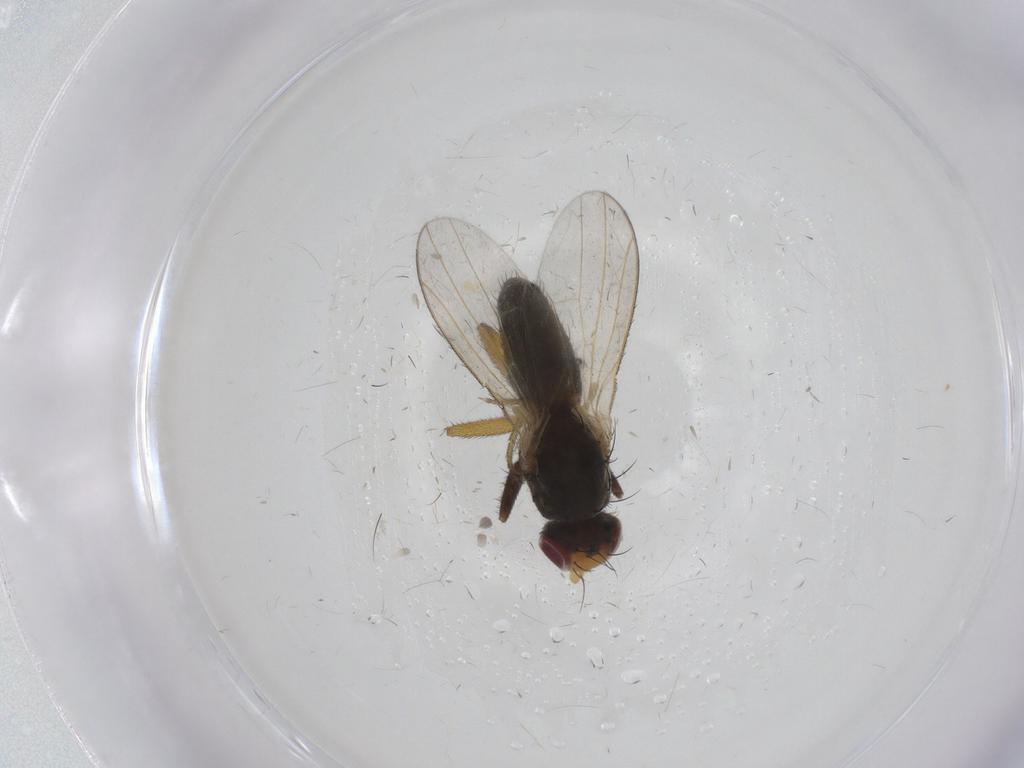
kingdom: Animalia
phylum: Arthropoda
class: Insecta
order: Diptera
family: Heleomyzidae
